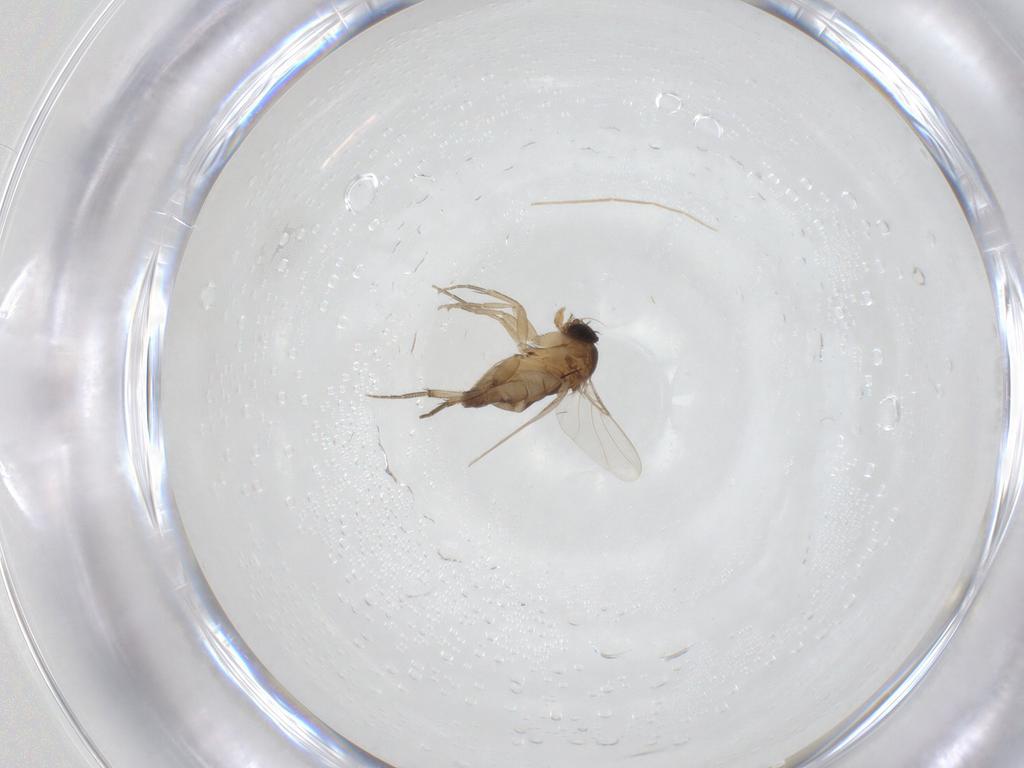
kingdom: Animalia
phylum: Arthropoda
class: Insecta
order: Diptera
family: Phoridae
